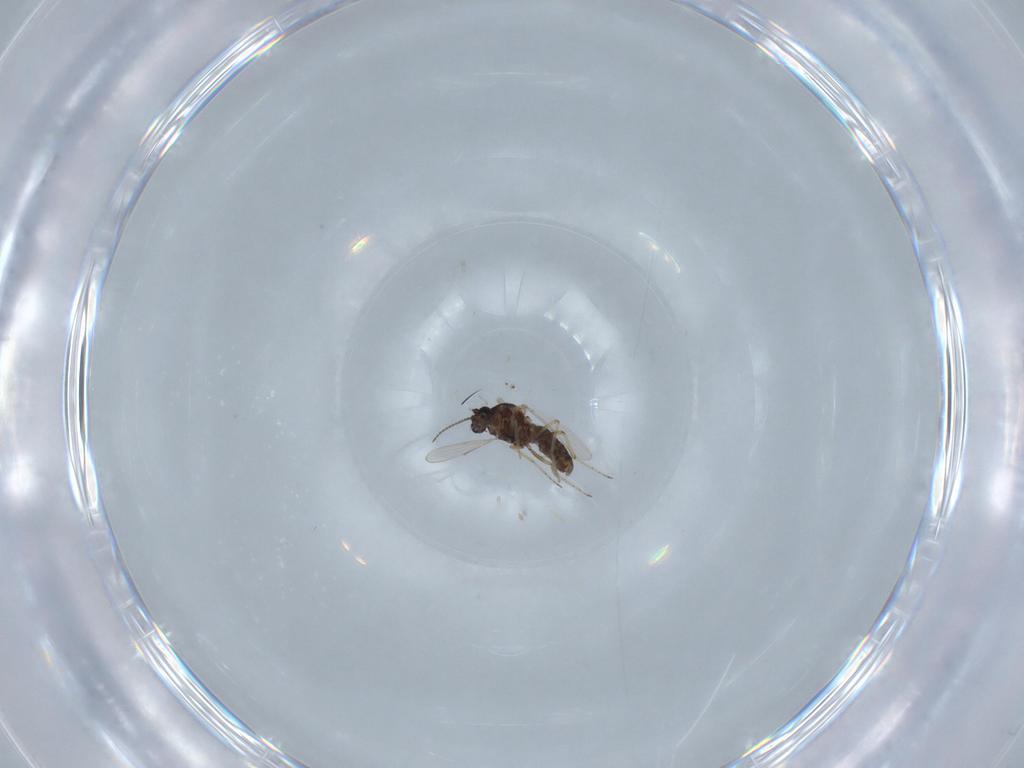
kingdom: Animalia
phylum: Arthropoda
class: Insecta
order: Diptera
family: Ceratopogonidae
